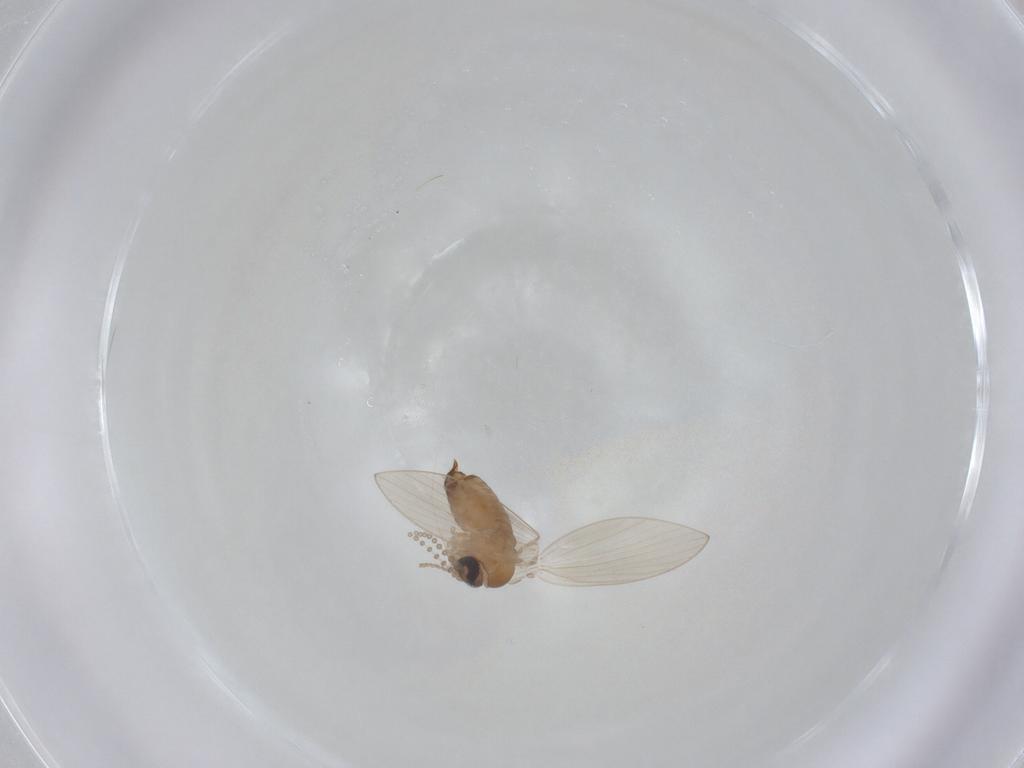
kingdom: Animalia
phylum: Arthropoda
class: Insecta
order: Diptera
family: Psychodidae
